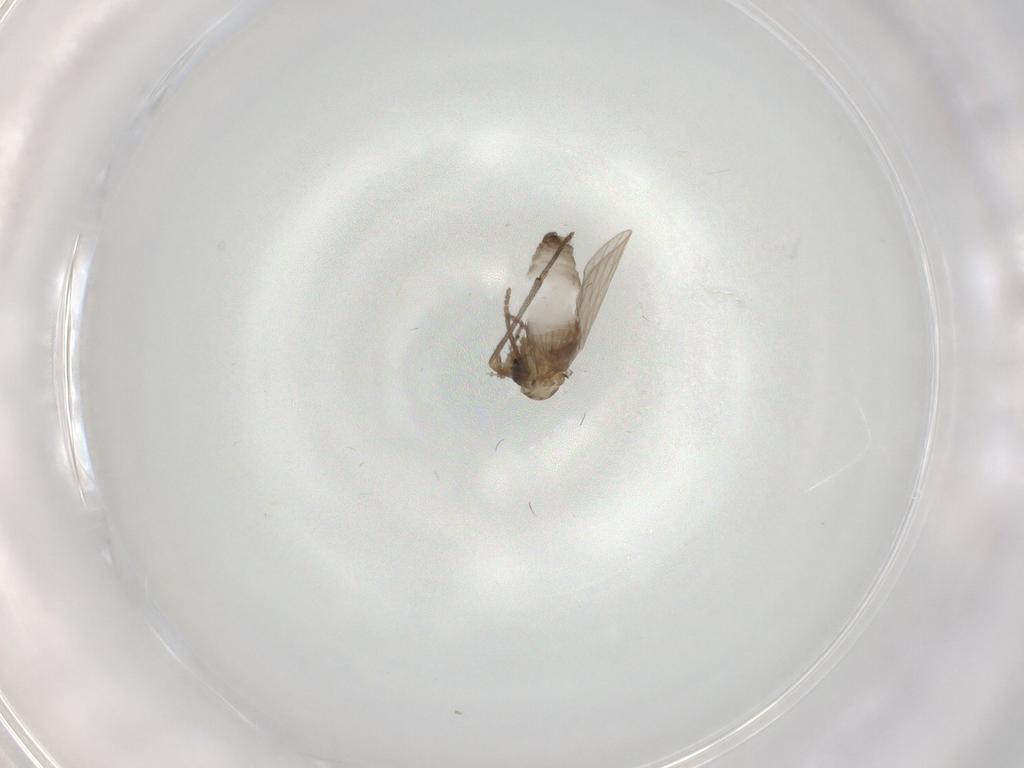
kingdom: Animalia
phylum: Arthropoda
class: Insecta
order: Diptera
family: Psychodidae
